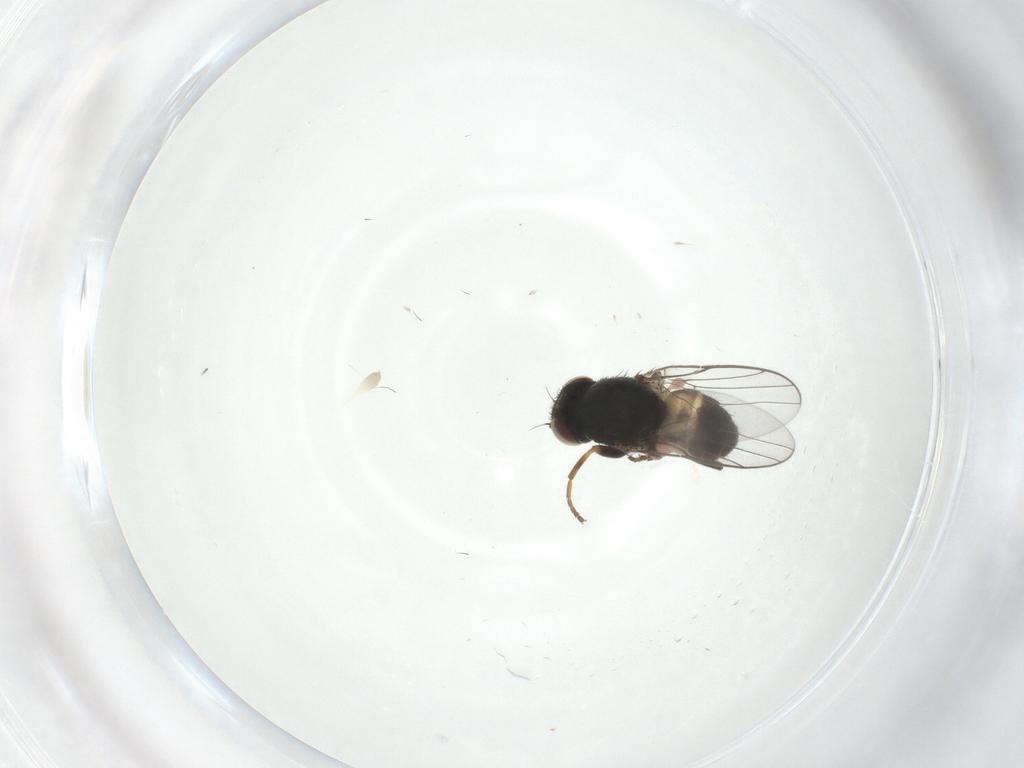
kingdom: Animalia
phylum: Arthropoda
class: Insecta
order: Diptera
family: Chloropidae
